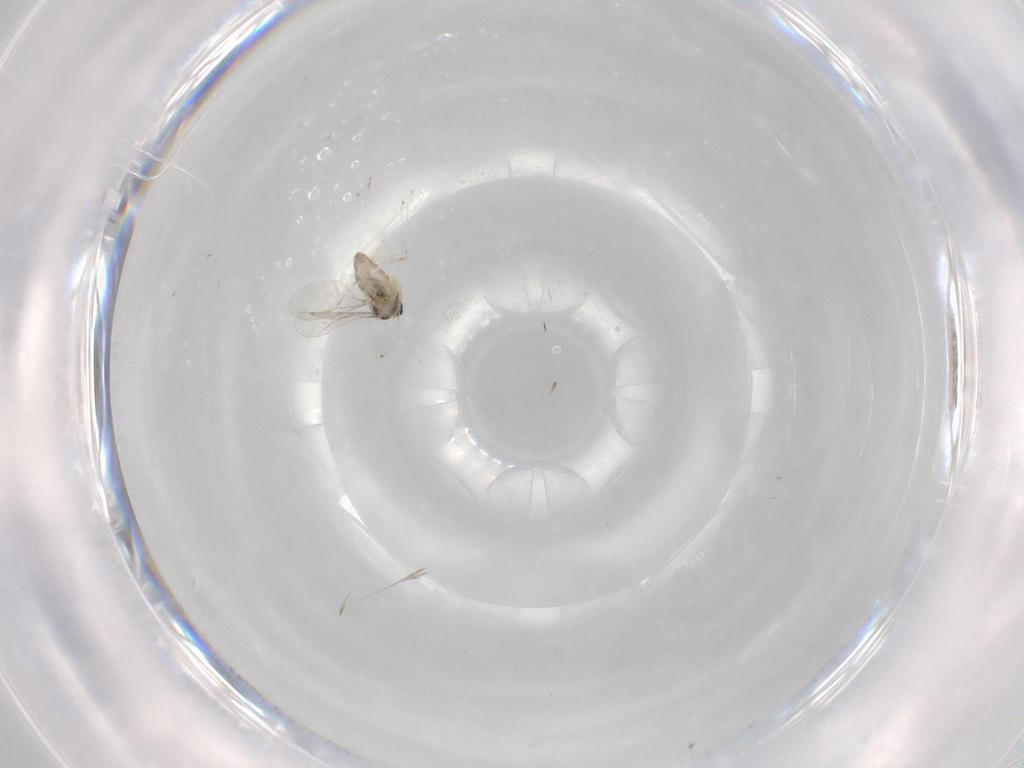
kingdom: Animalia
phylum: Arthropoda
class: Insecta
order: Diptera
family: Cecidomyiidae
